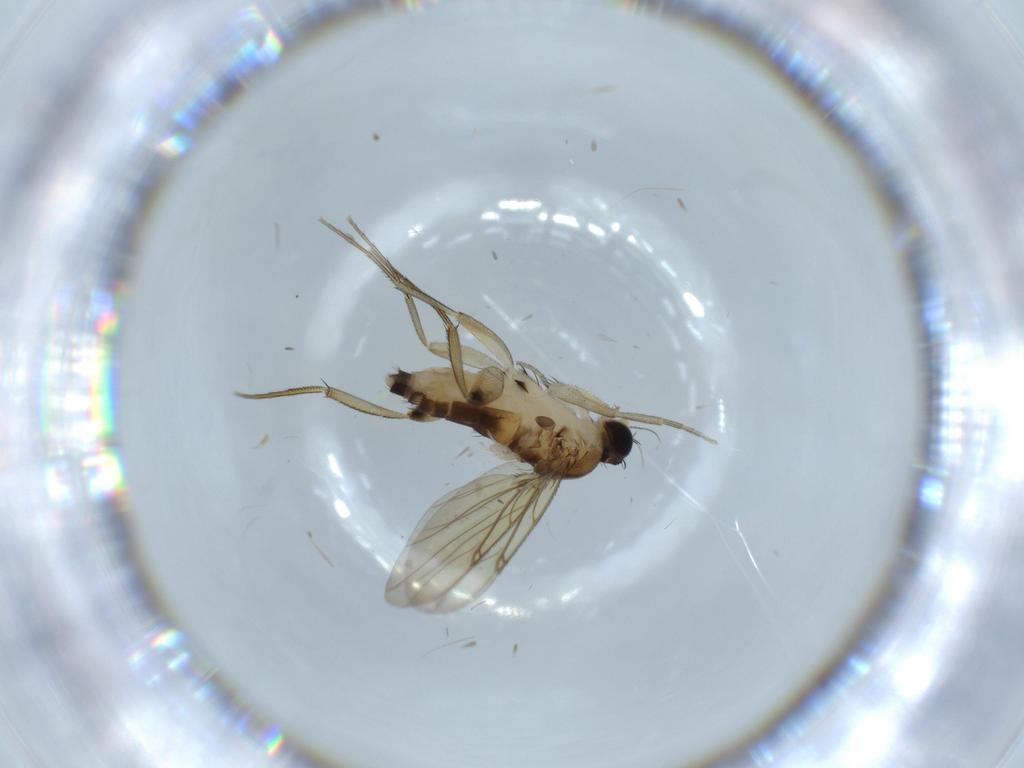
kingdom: Animalia
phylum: Arthropoda
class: Insecta
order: Diptera
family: Phoridae
